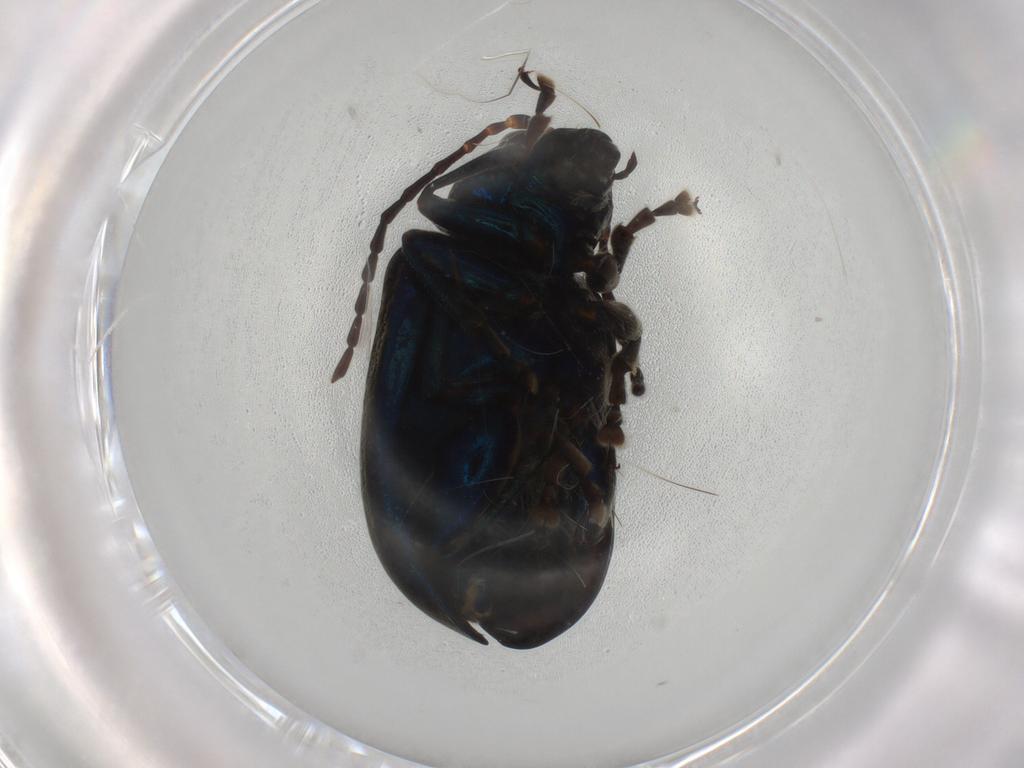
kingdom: Animalia
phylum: Arthropoda
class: Insecta
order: Coleoptera
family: Chrysomelidae
